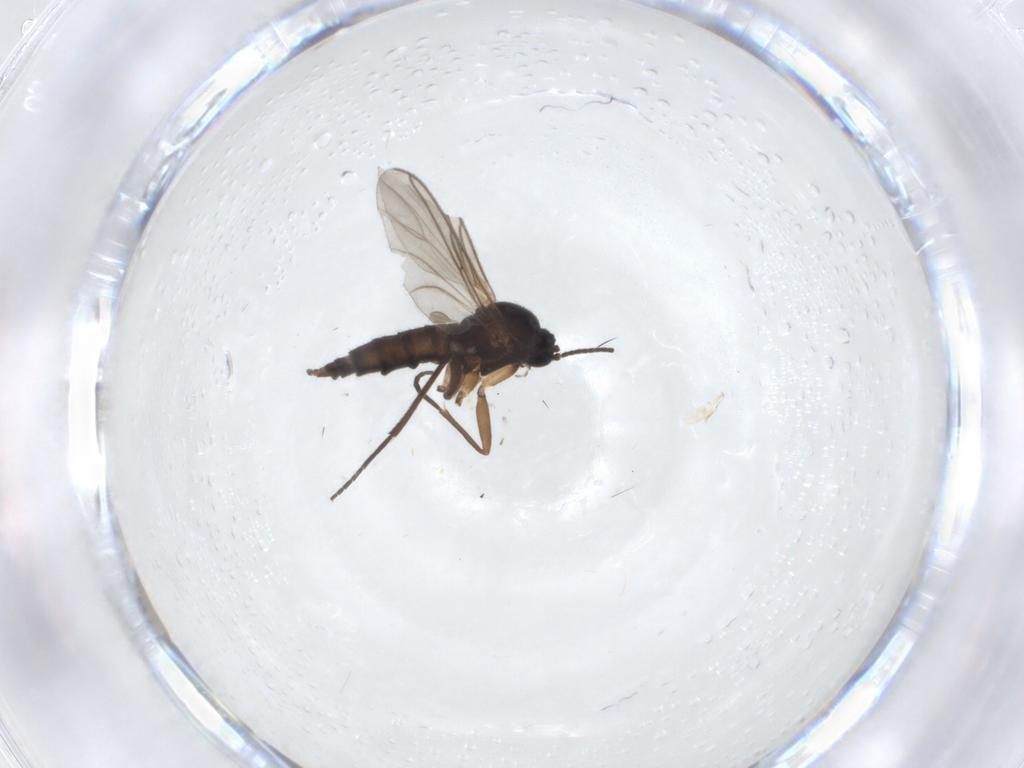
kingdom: Animalia
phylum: Arthropoda
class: Insecta
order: Diptera
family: Sciaridae
